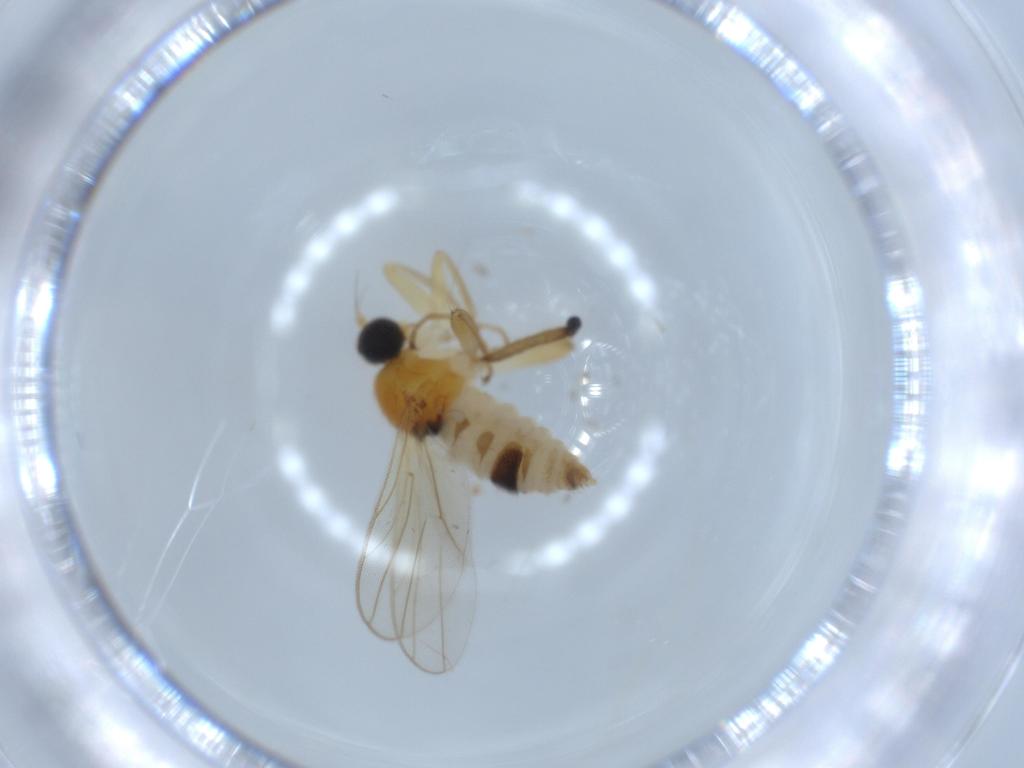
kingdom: Animalia
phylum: Arthropoda
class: Insecta
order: Diptera
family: Hybotidae
